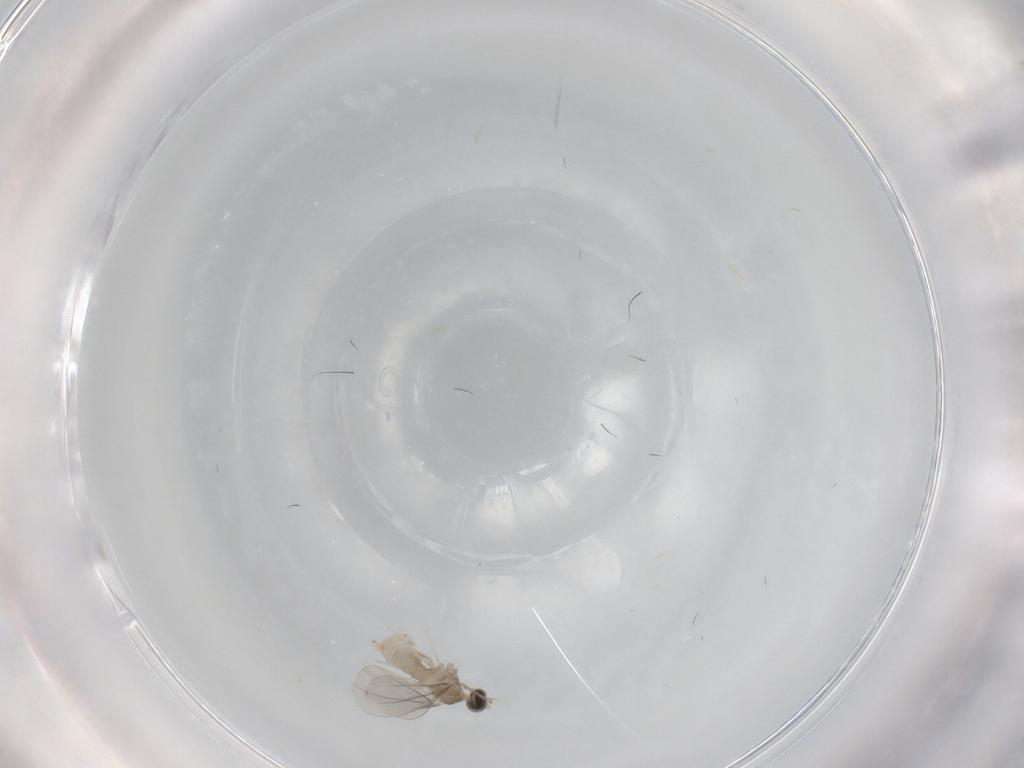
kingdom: Animalia
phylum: Arthropoda
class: Insecta
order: Diptera
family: Cecidomyiidae
